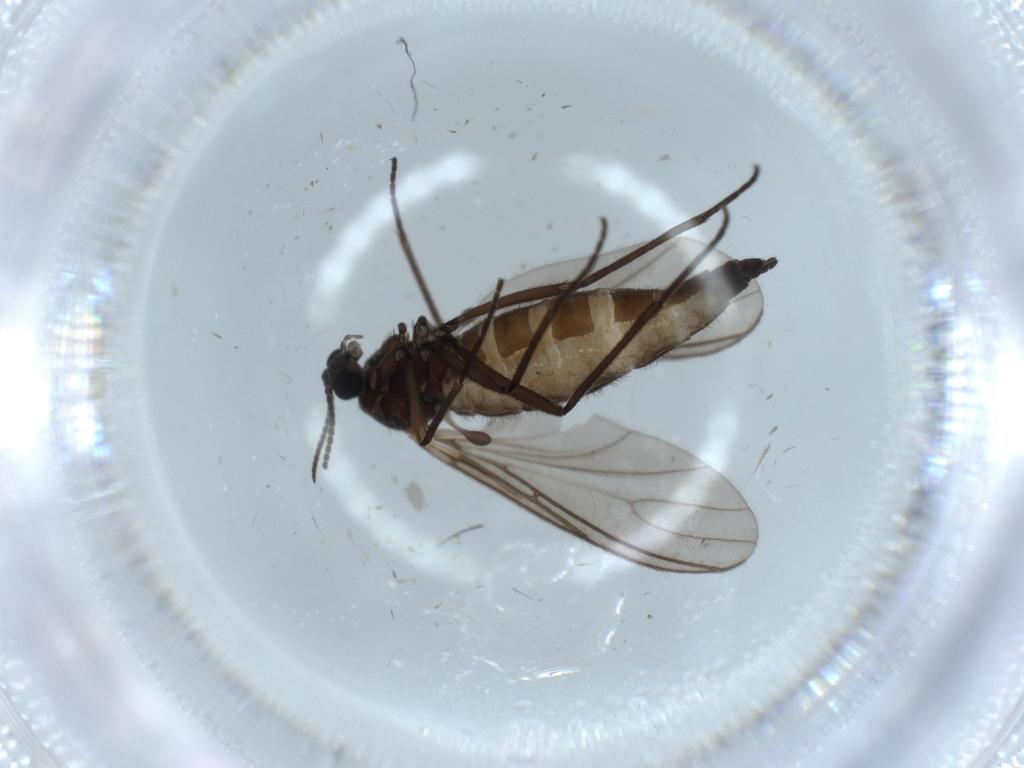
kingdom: Animalia
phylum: Arthropoda
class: Insecta
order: Diptera
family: Sciaridae
